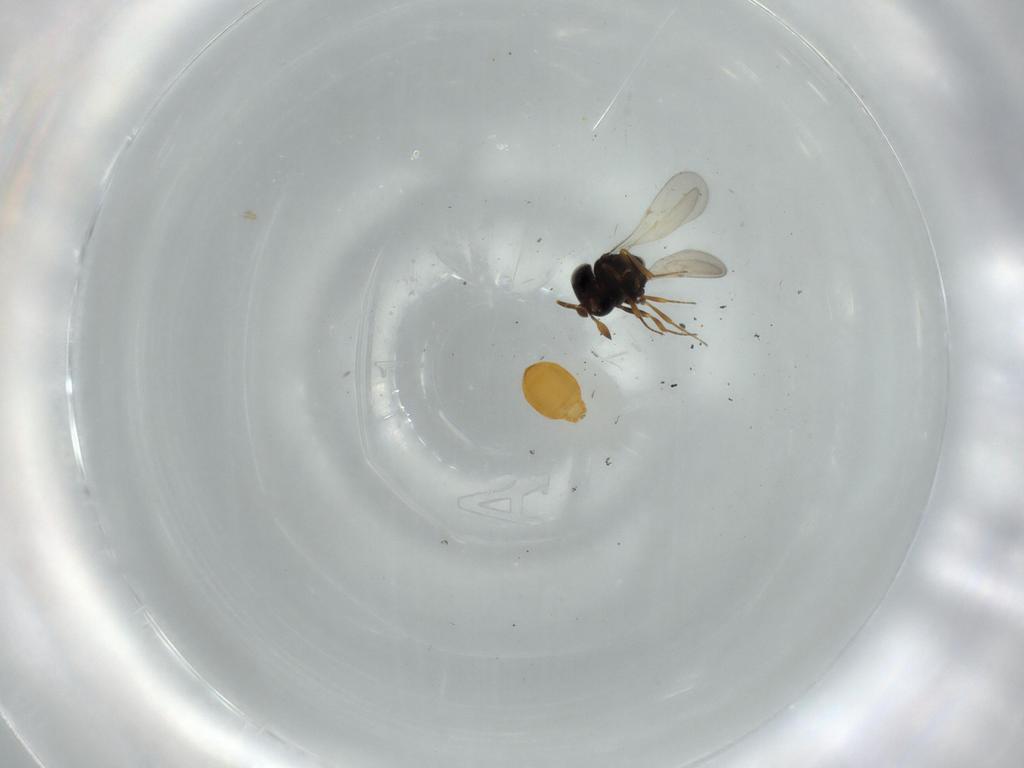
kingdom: Animalia
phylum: Arthropoda
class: Insecta
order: Hymenoptera
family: Scelionidae
